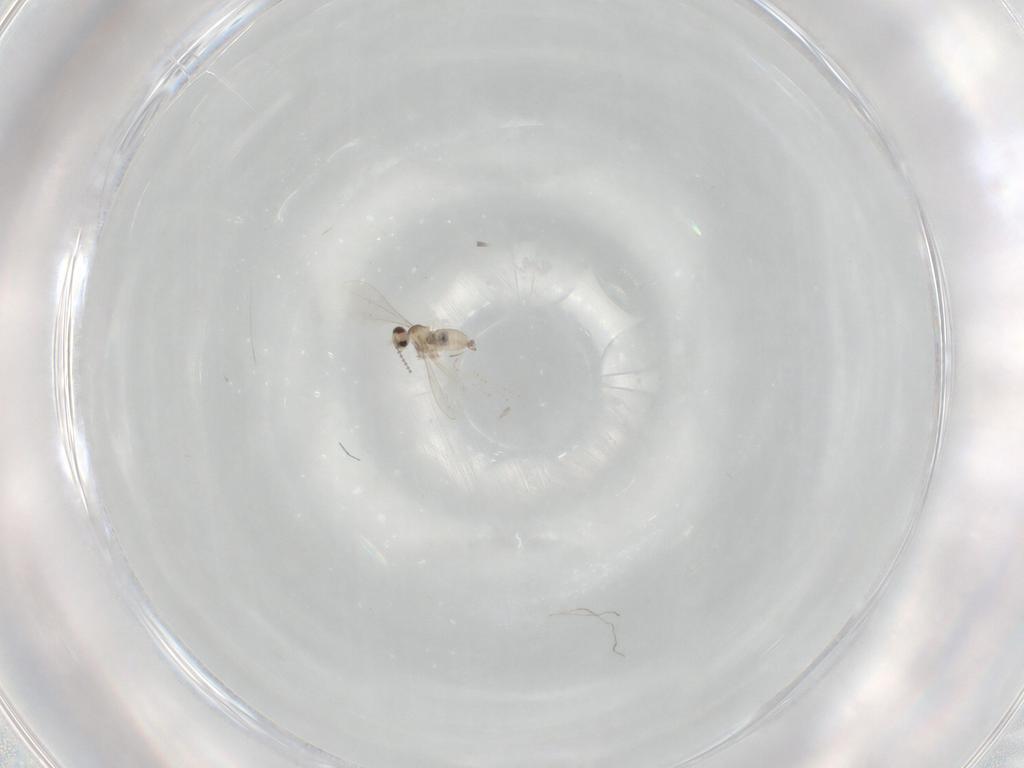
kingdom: Animalia
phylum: Arthropoda
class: Insecta
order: Diptera
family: Cecidomyiidae
